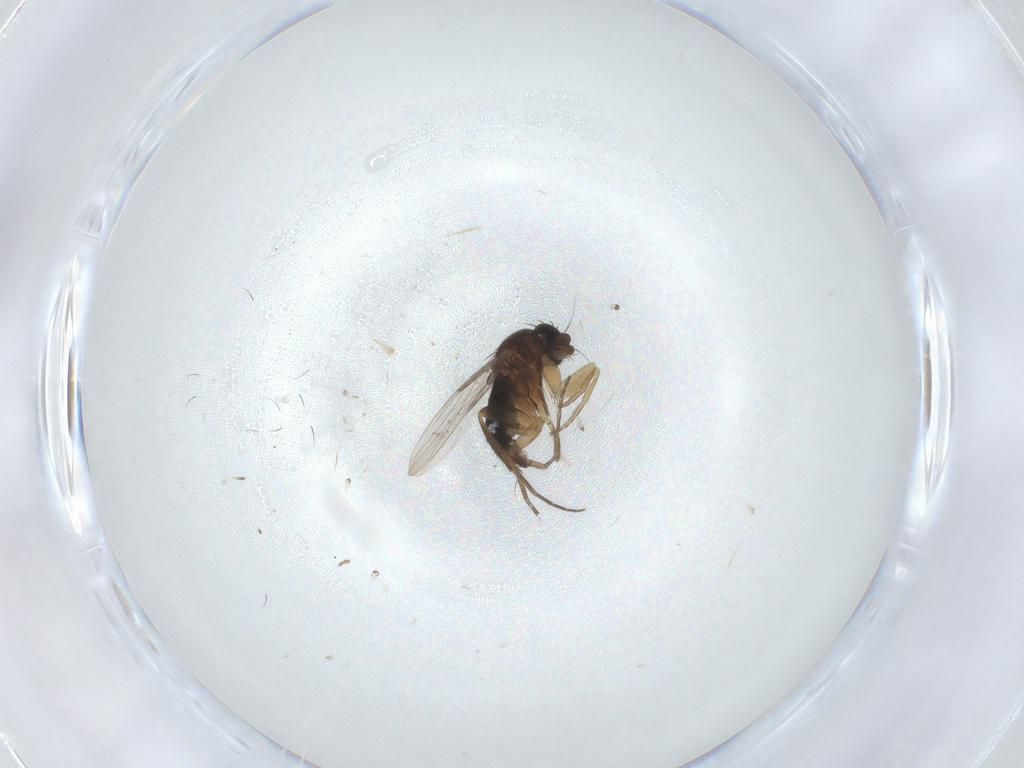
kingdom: Animalia
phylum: Arthropoda
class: Insecta
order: Diptera
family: Phoridae
